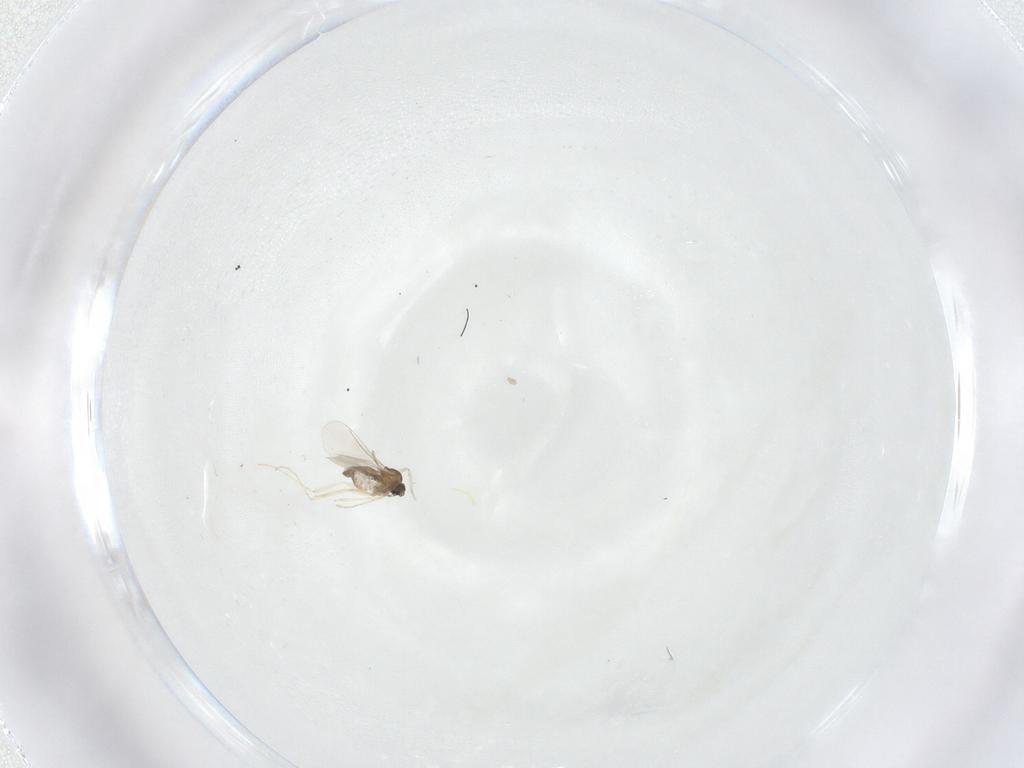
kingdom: Animalia
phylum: Arthropoda
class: Insecta
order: Diptera
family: Cecidomyiidae
